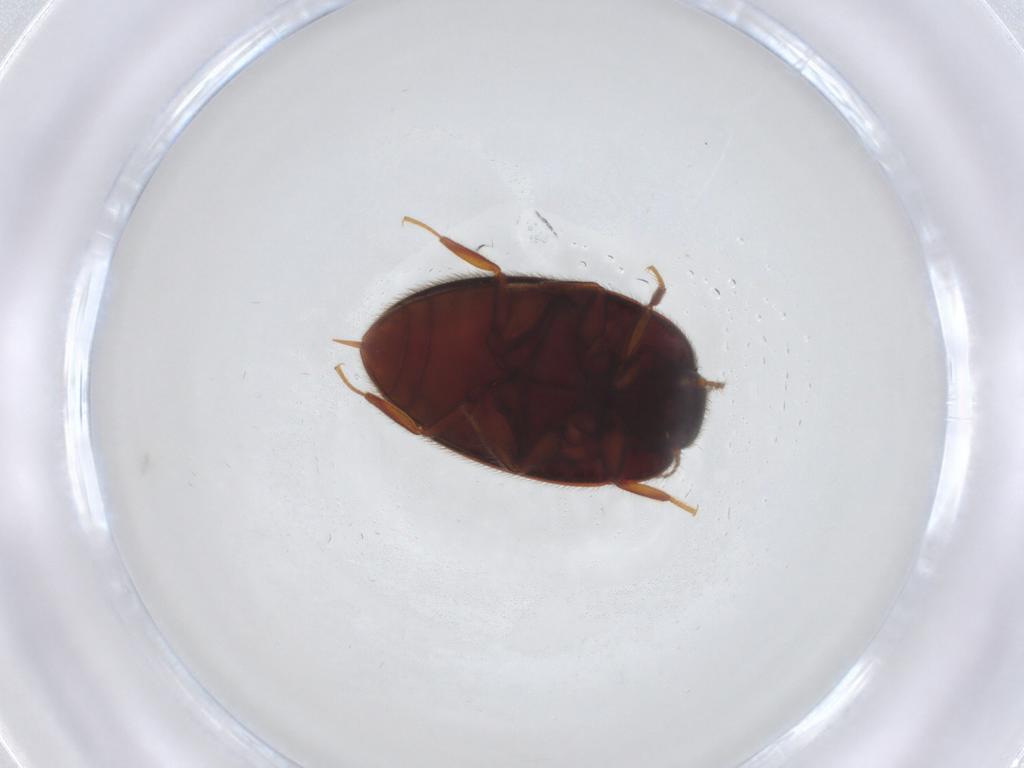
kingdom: Animalia
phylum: Arthropoda
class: Insecta
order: Coleoptera
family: Limnichidae
